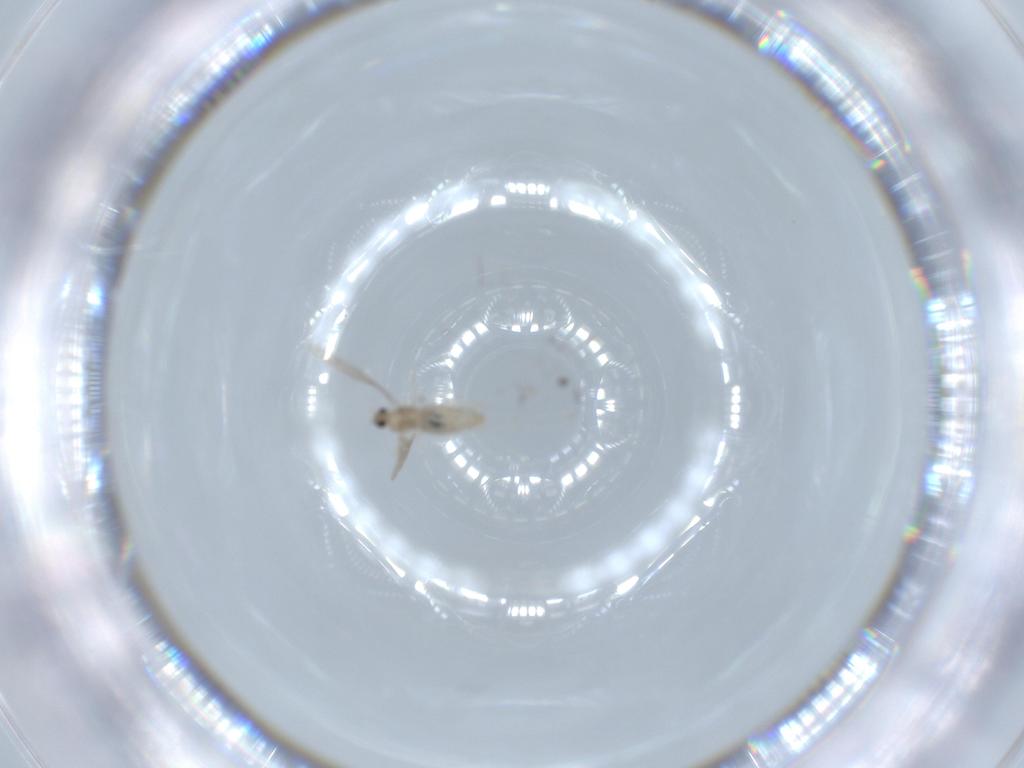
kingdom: Animalia
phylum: Arthropoda
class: Insecta
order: Diptera
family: Cecidomyiidae
